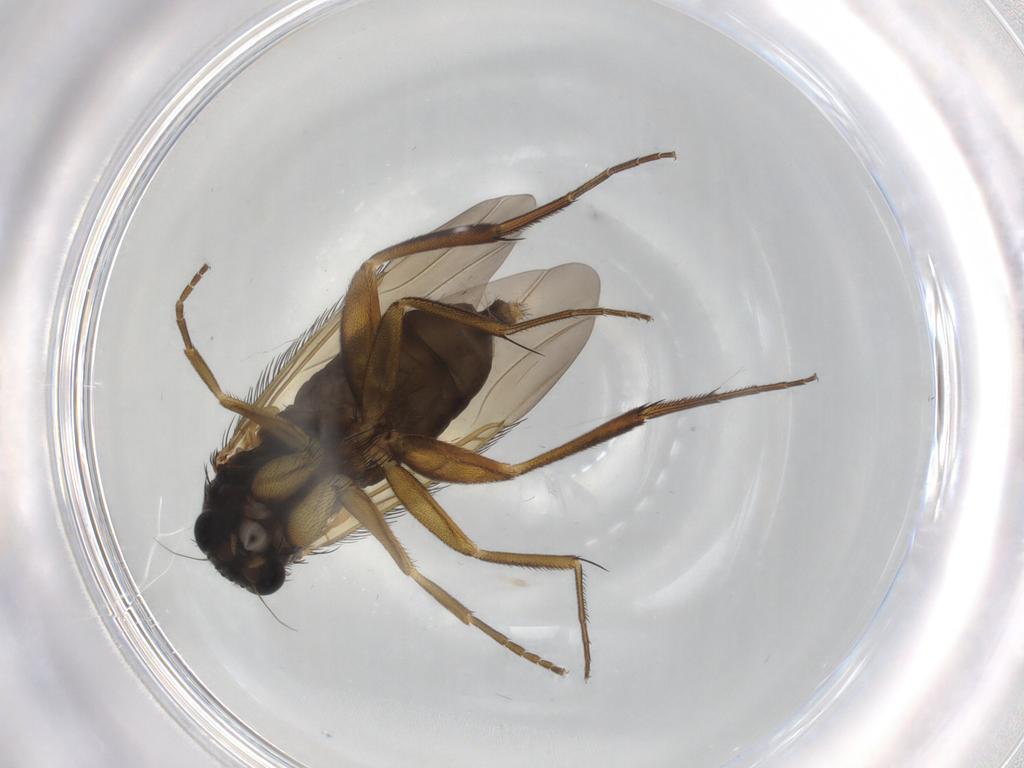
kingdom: Animalia
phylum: Arthropoda
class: Insecta
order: Diptera
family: Phoridae
